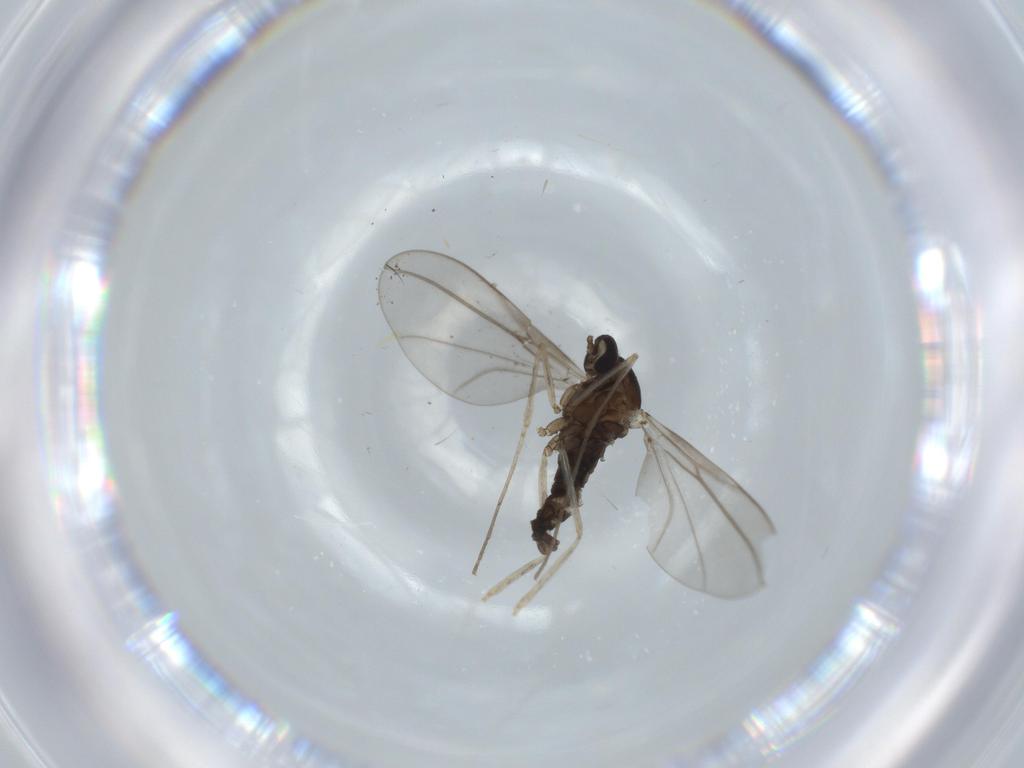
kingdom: Animalia
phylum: Arthropoda
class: Insecta
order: Diptera
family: Cecidomyiidae
